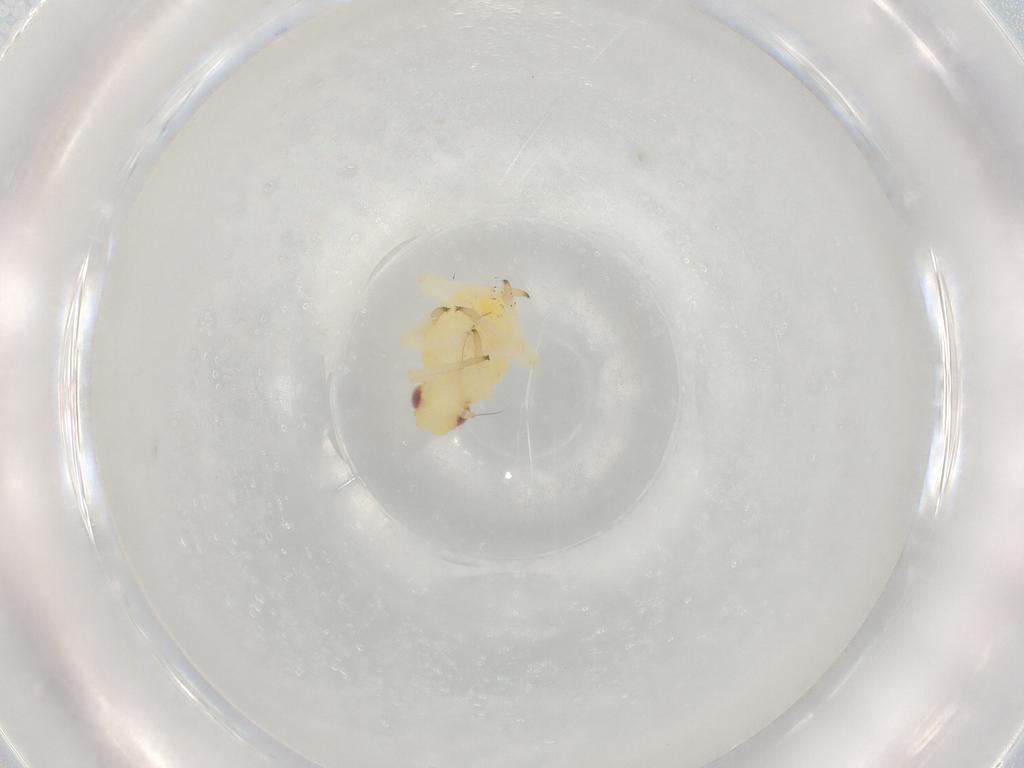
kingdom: Animalia
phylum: Arthropoda
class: Insecta
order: Hemiptera
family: Caliscelidae
